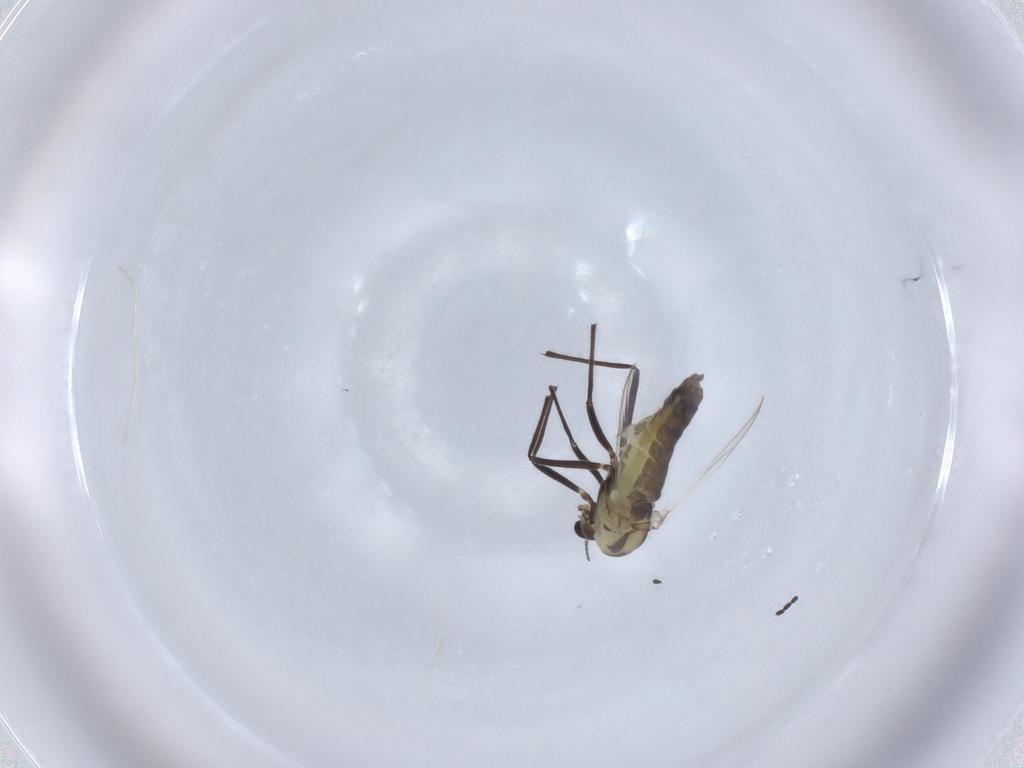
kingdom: Animalia
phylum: Arthropoda
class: Insecta
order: Diptera
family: Chironomidae
